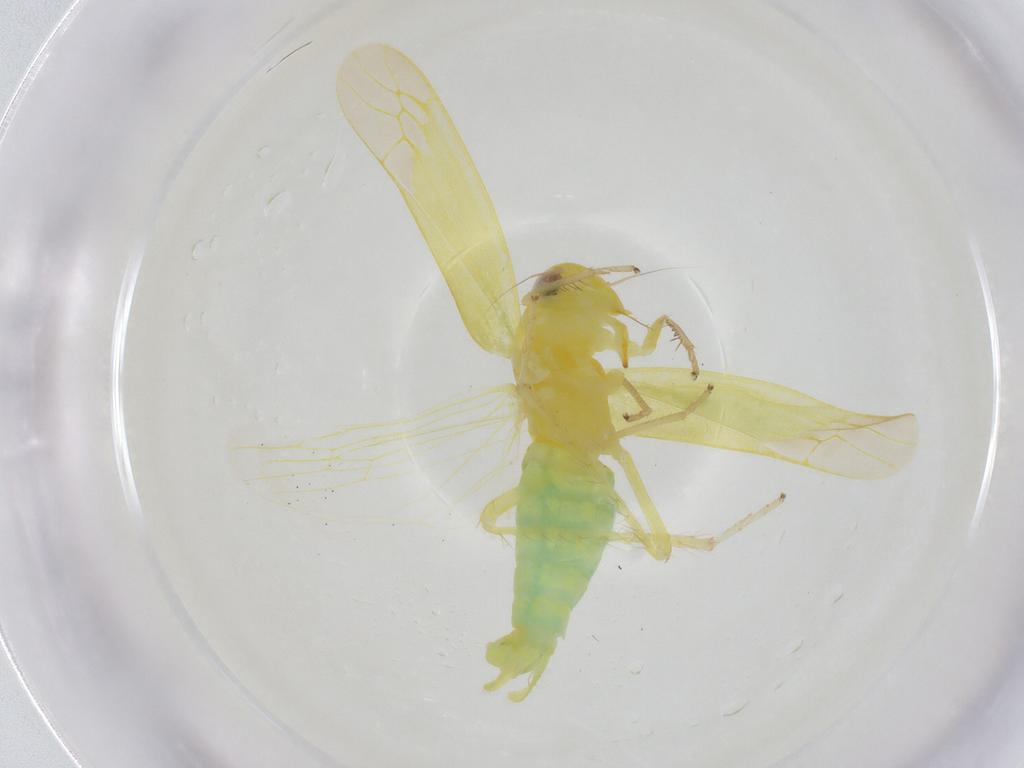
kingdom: Animalia
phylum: Arthropoda
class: Insecta
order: Hemiptera
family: Cicadellidae
